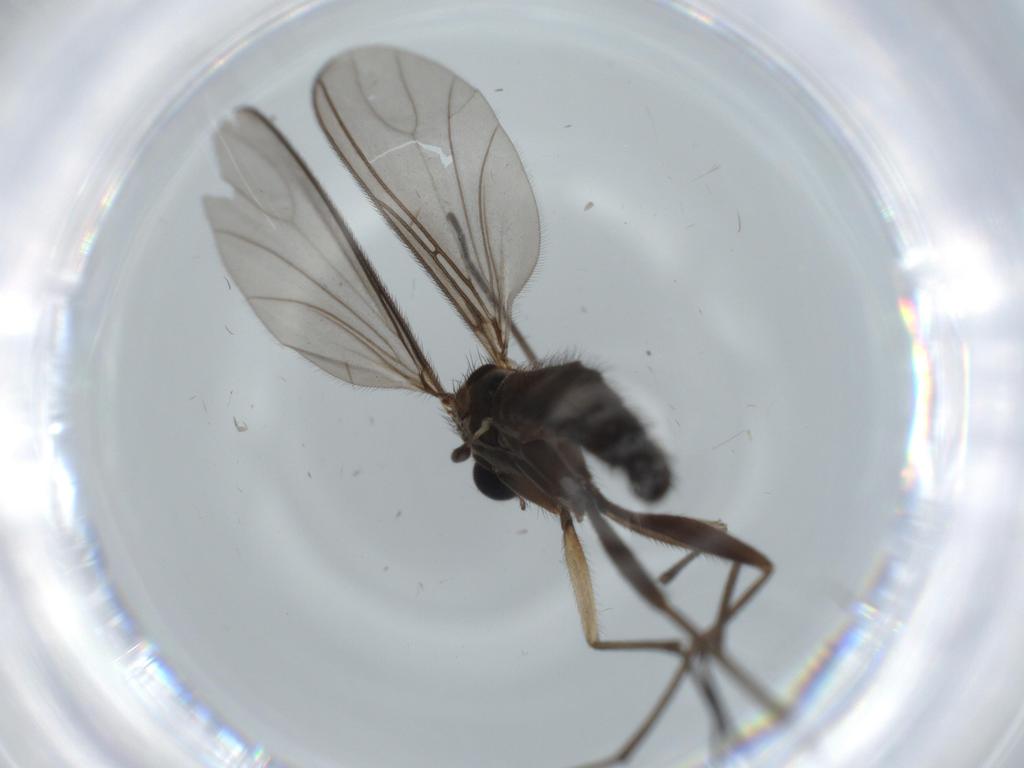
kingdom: Animalia
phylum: Arthropoda
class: Insecta
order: Diptera
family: Sciaridae
